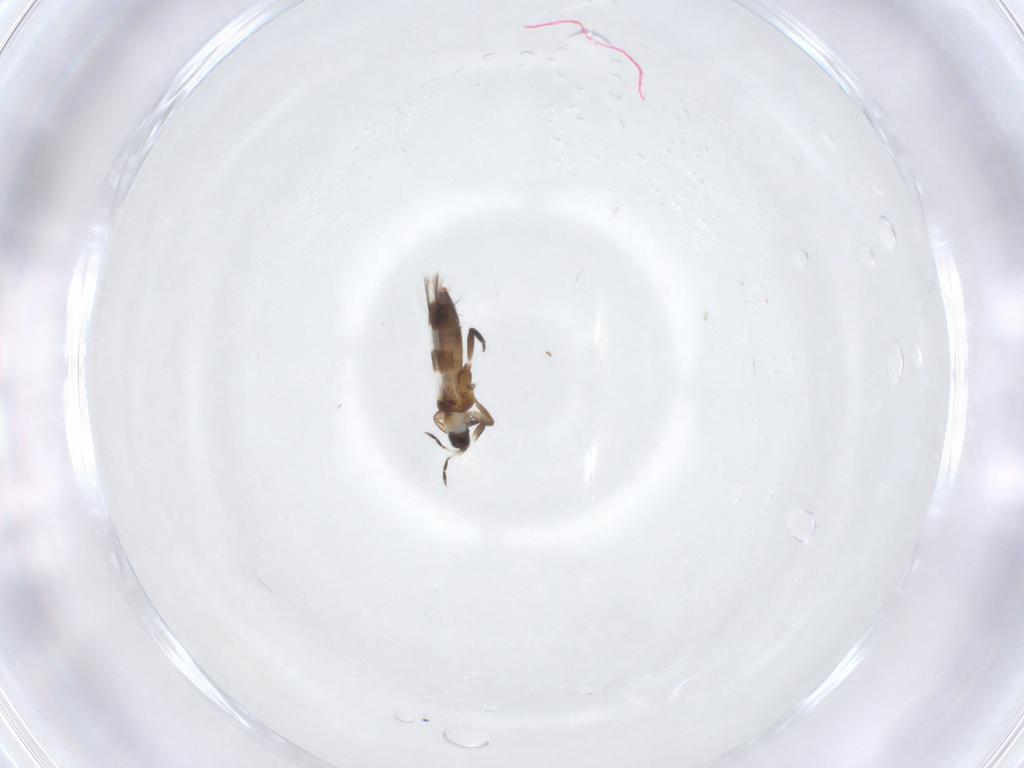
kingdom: Animalia
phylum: Arthropoda
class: Insecta
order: Thysanoptera
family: Aeolothripidae
